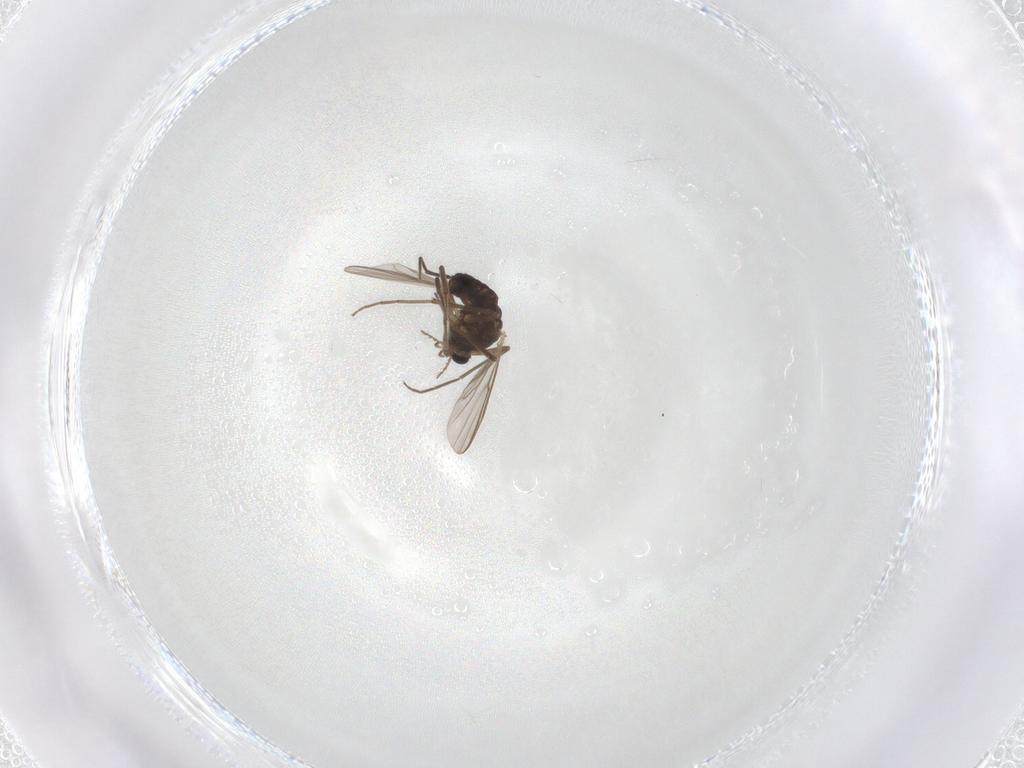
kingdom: Animalia
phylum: Arthropoda
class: Insecta
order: Diptera
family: Chironomidae
